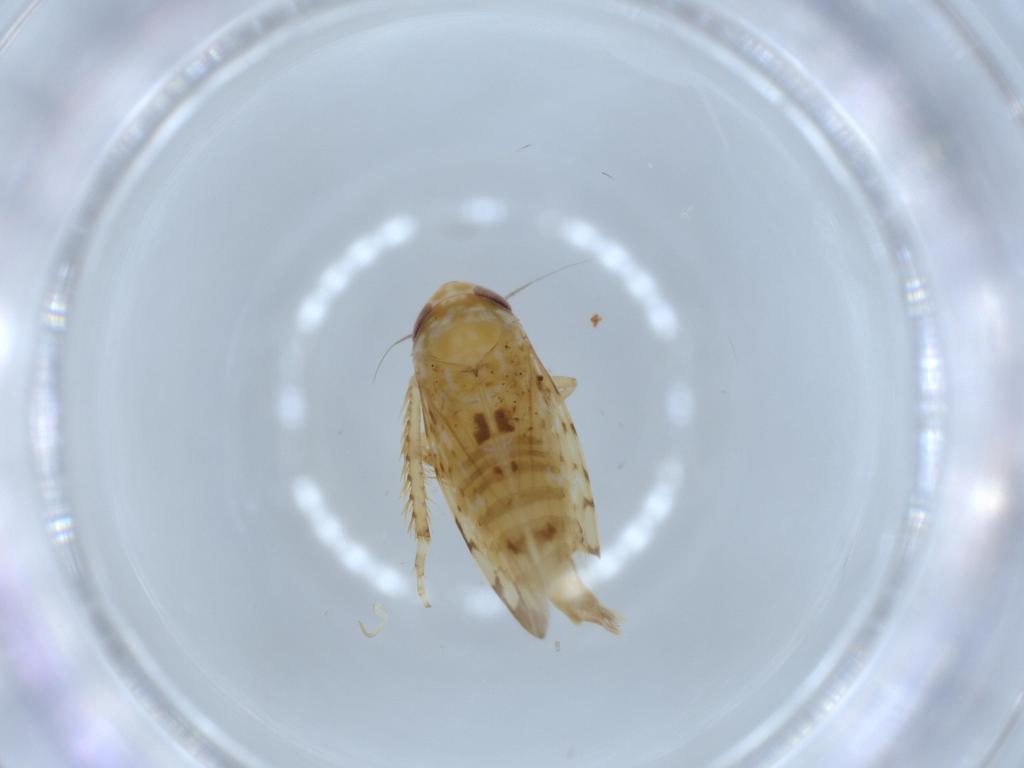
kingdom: Animalia
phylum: Arthropoda
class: Insecta
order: Hemiptera
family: Cicadellidae
